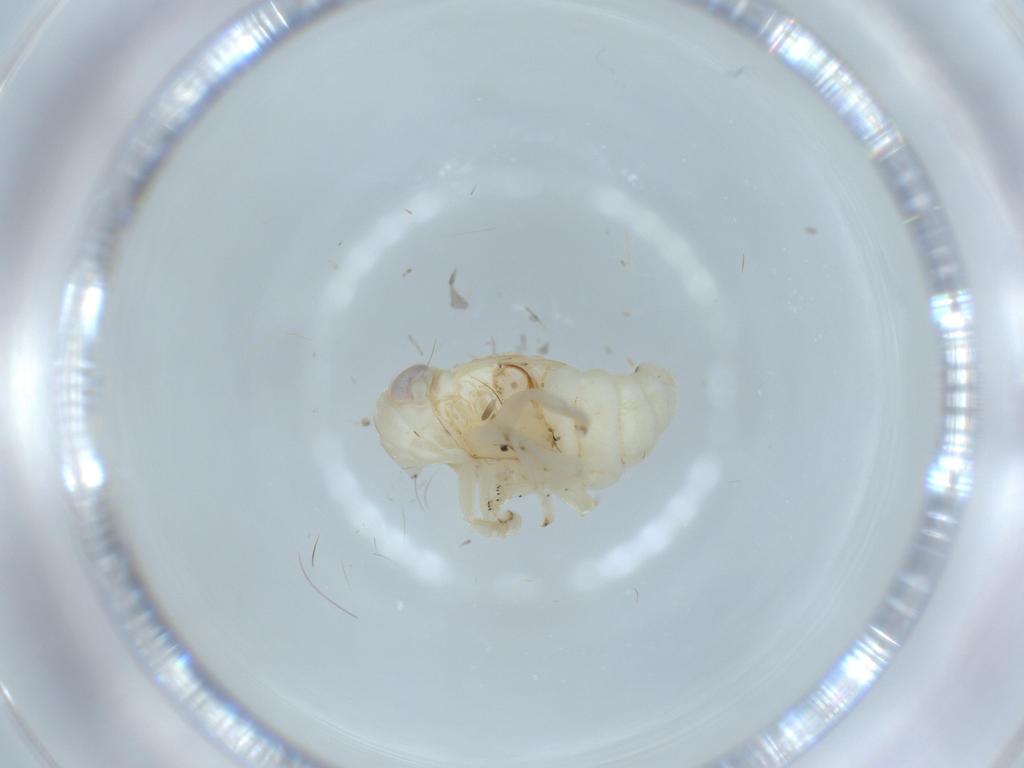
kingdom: Animalia
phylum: Arthropoda
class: Insecta
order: Hemiptera
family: Nogodinidae
